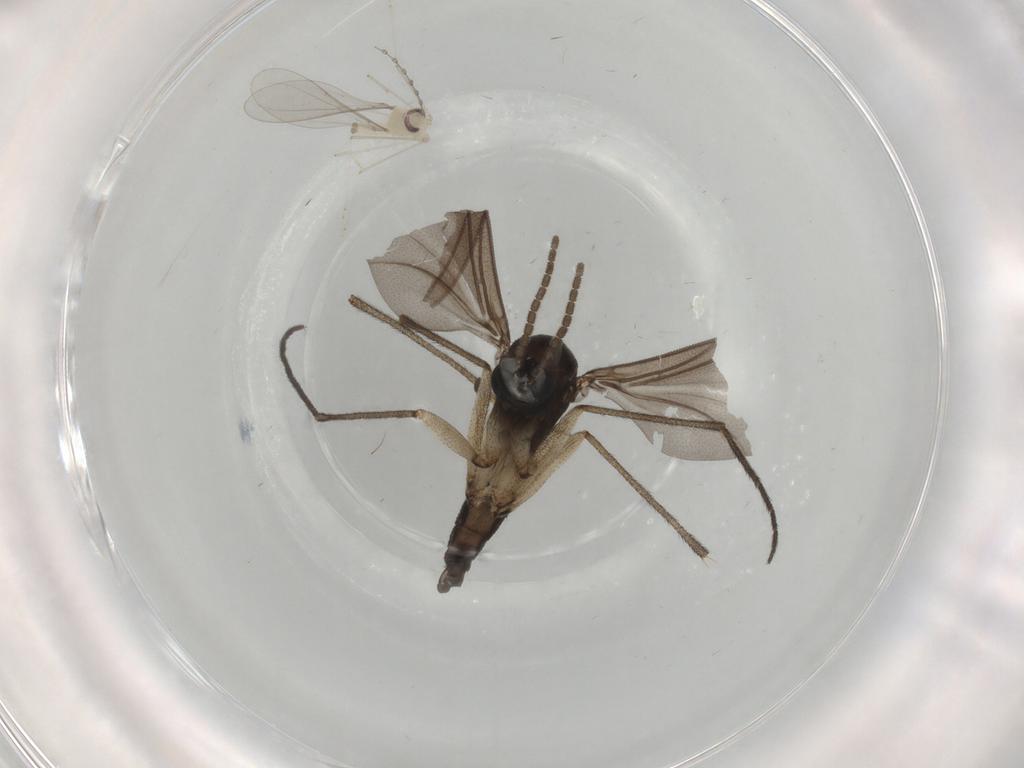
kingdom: Animalia
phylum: Arthropoda
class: Insecta
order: Diptera
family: Sciaridae
